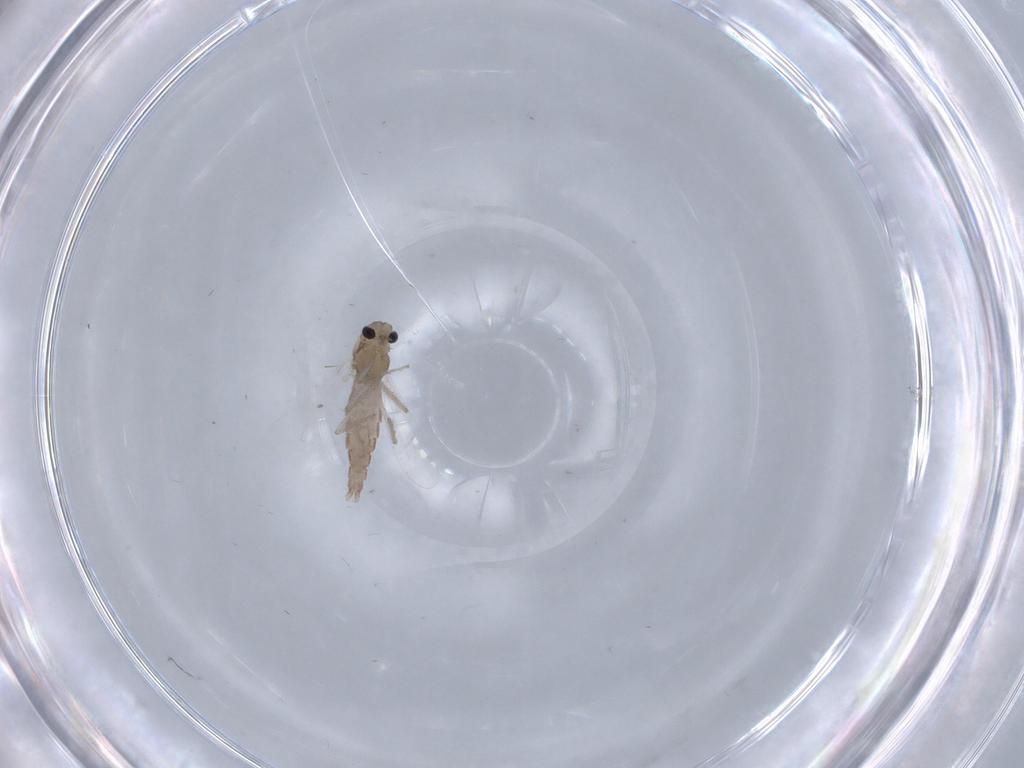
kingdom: Animalia
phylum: Arthropoda
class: Insecta
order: Diptera
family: Chironomidae
